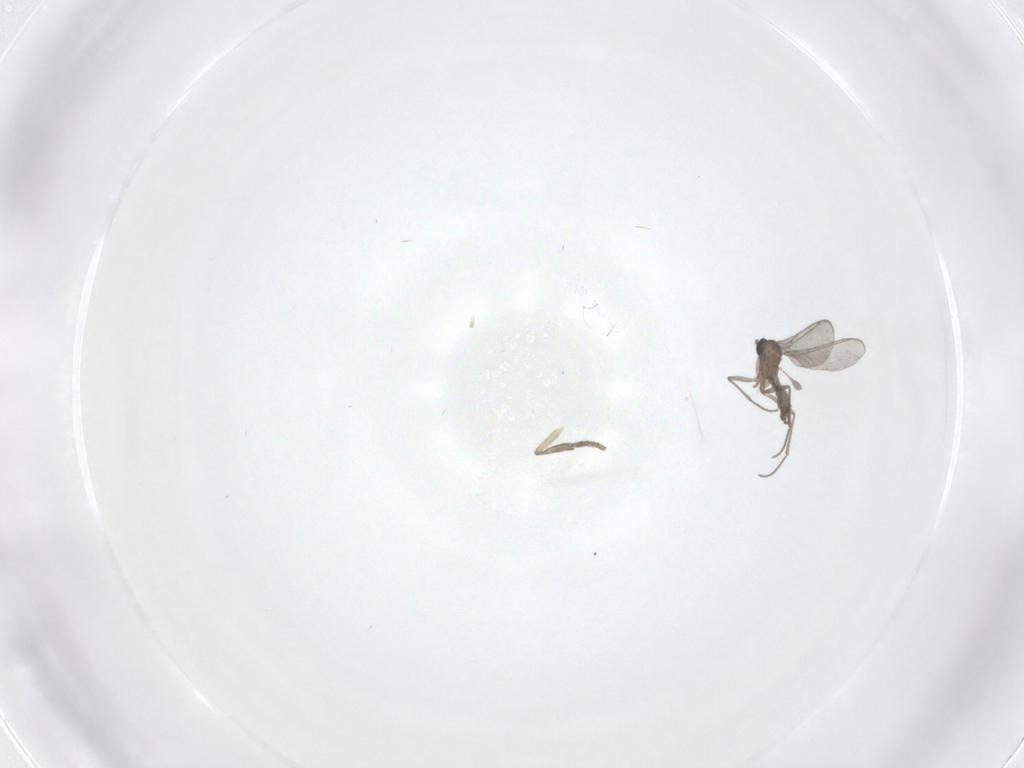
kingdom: Animalia
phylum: Arthropoda
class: Insecta
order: Diptera
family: Psychodidae
